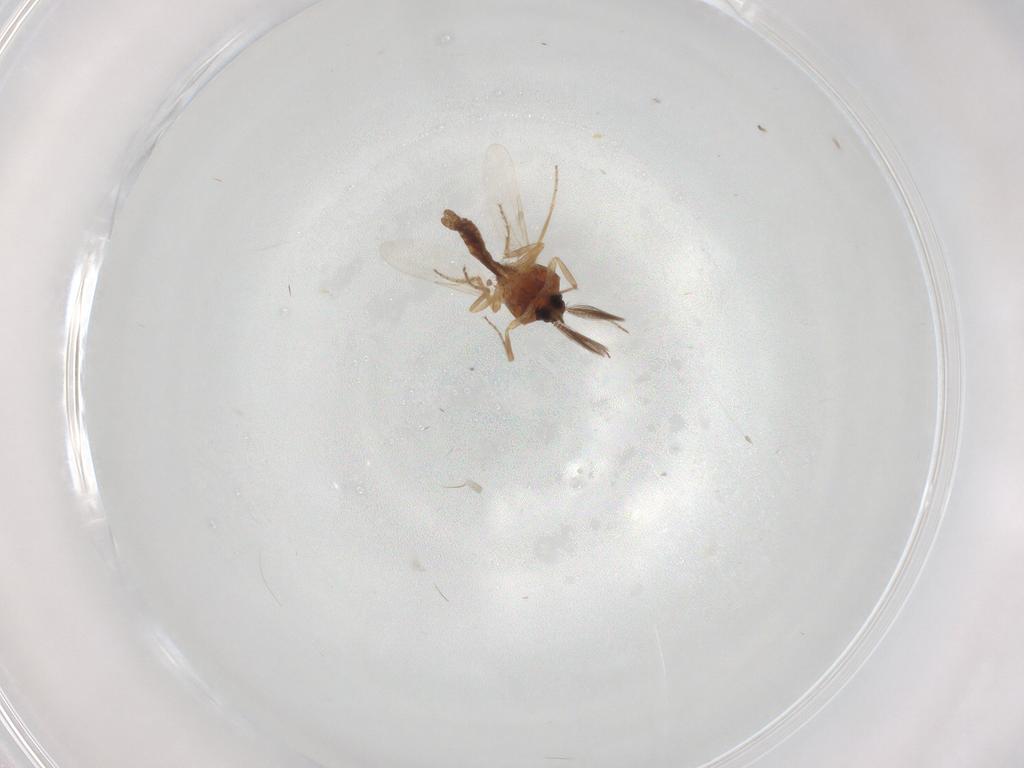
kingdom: Animalia
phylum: Arthropoda
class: Insecta
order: Diptera
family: Ceratopogonidae
